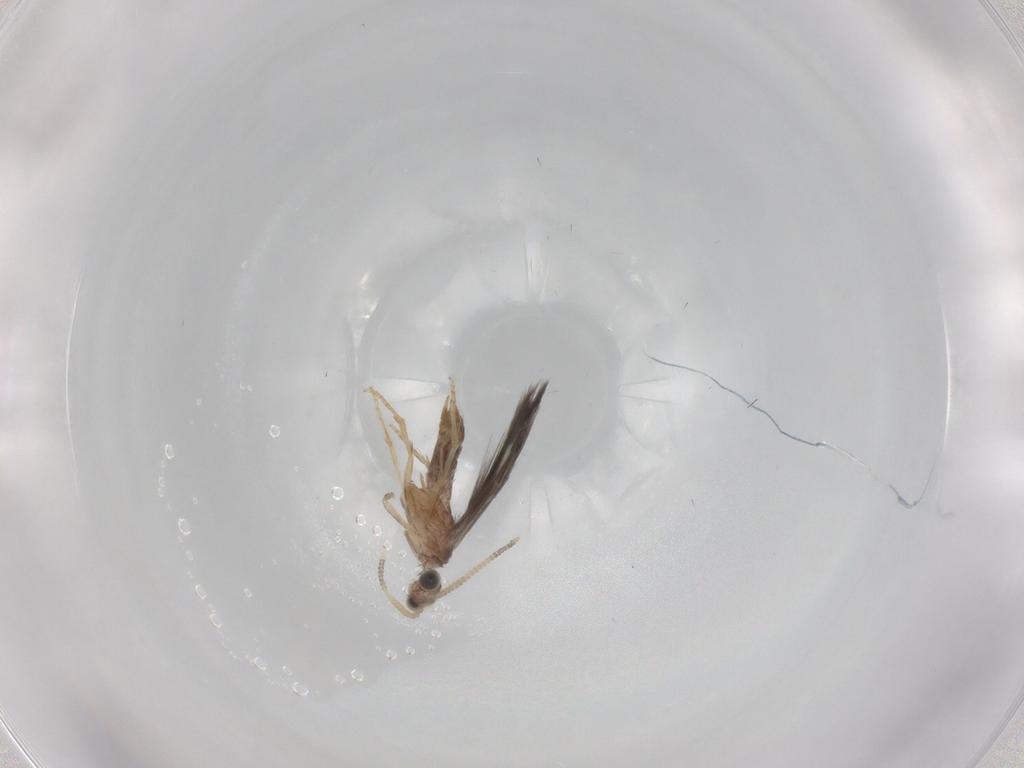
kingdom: Animalia
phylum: Arthropoda
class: Insecta
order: Trichoptera
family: Hydroptilidae
